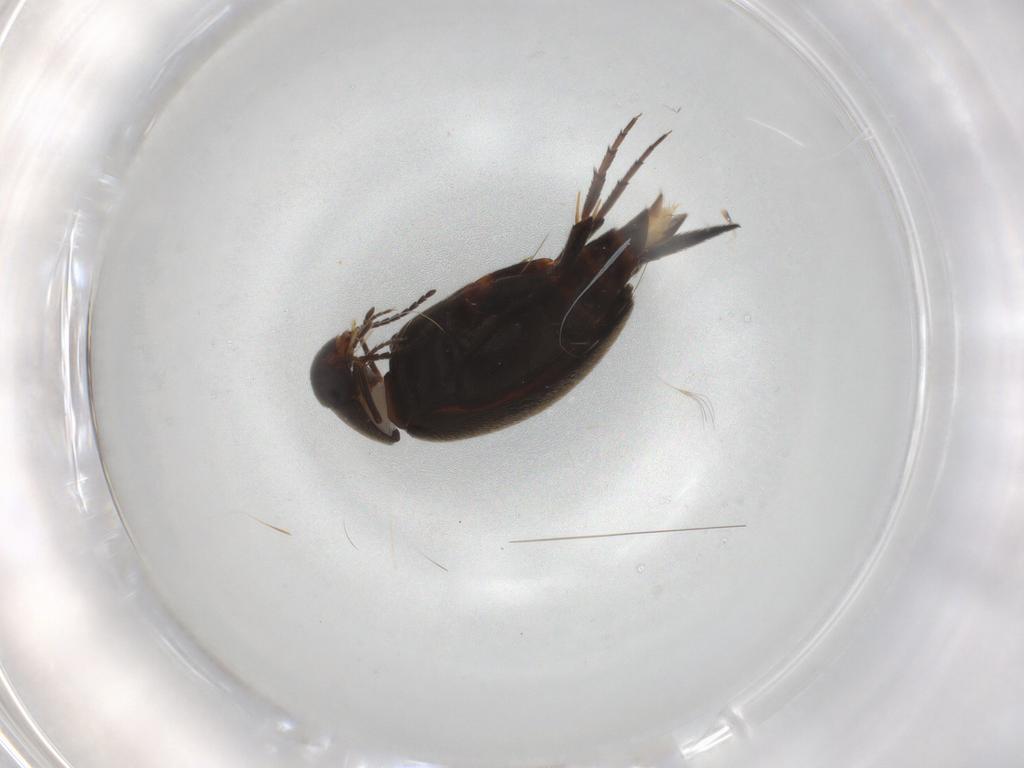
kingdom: Animalia
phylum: Arthropoda
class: Insecta
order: Coleoptera
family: Mordellidae
